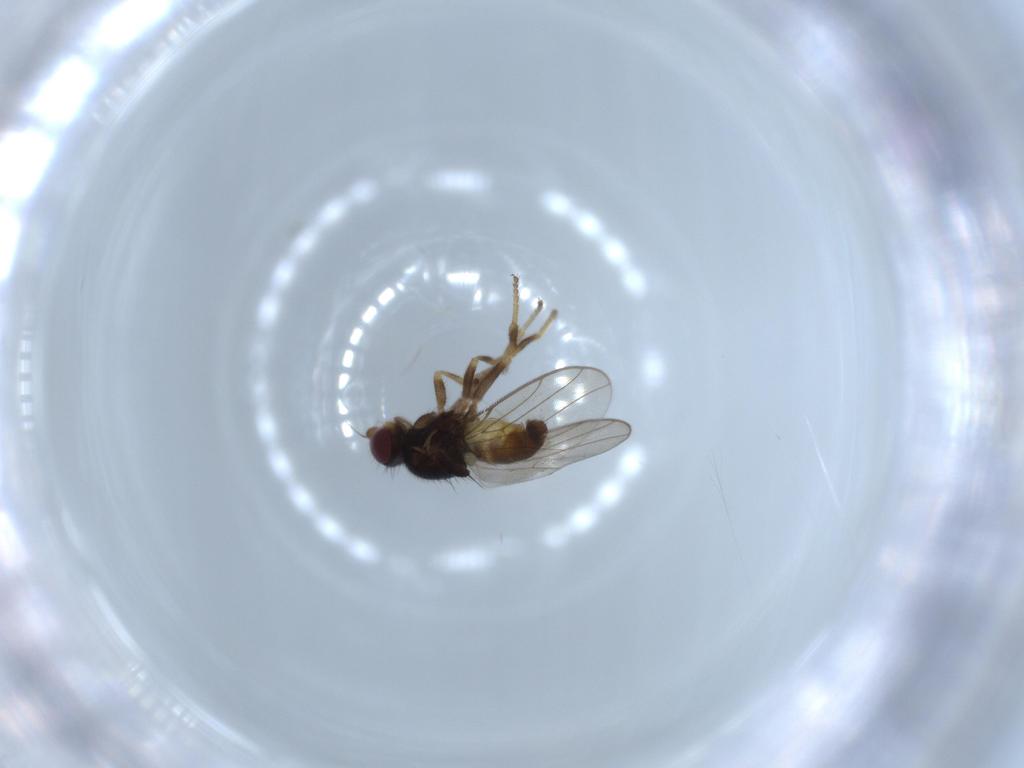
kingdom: Animalia
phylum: Arthropoda
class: Insecta
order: Diptera
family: Chloropidae
